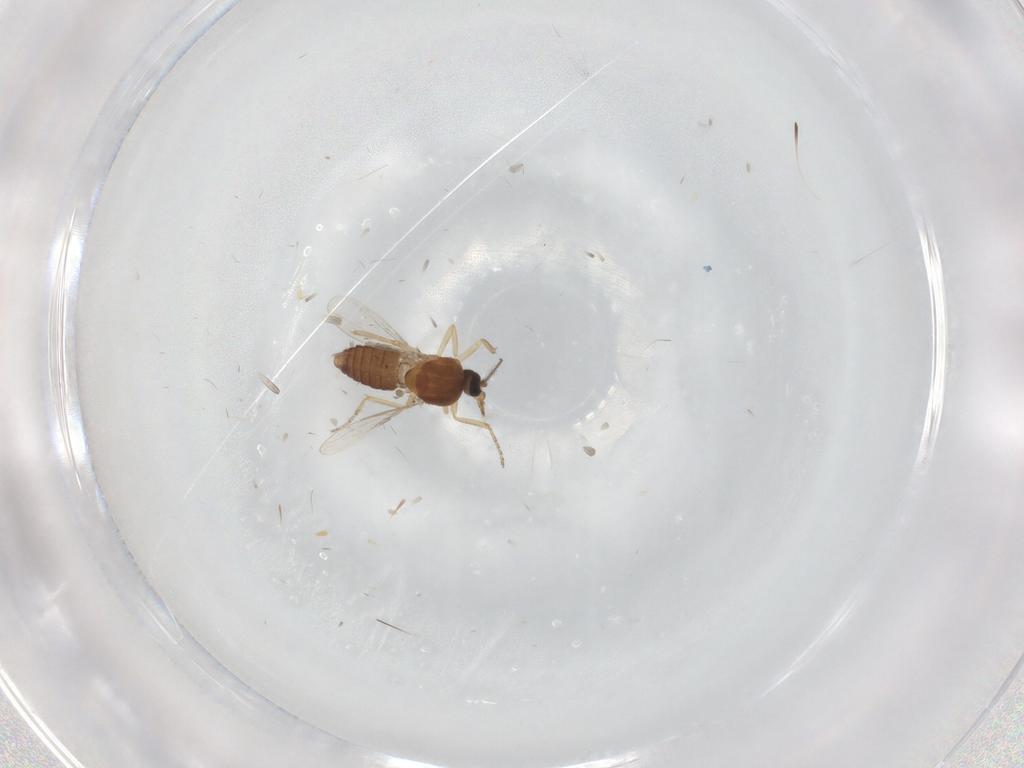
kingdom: Animalia
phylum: Arthropoda
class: Insecta
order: Diptera
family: Ceratopogonidae
